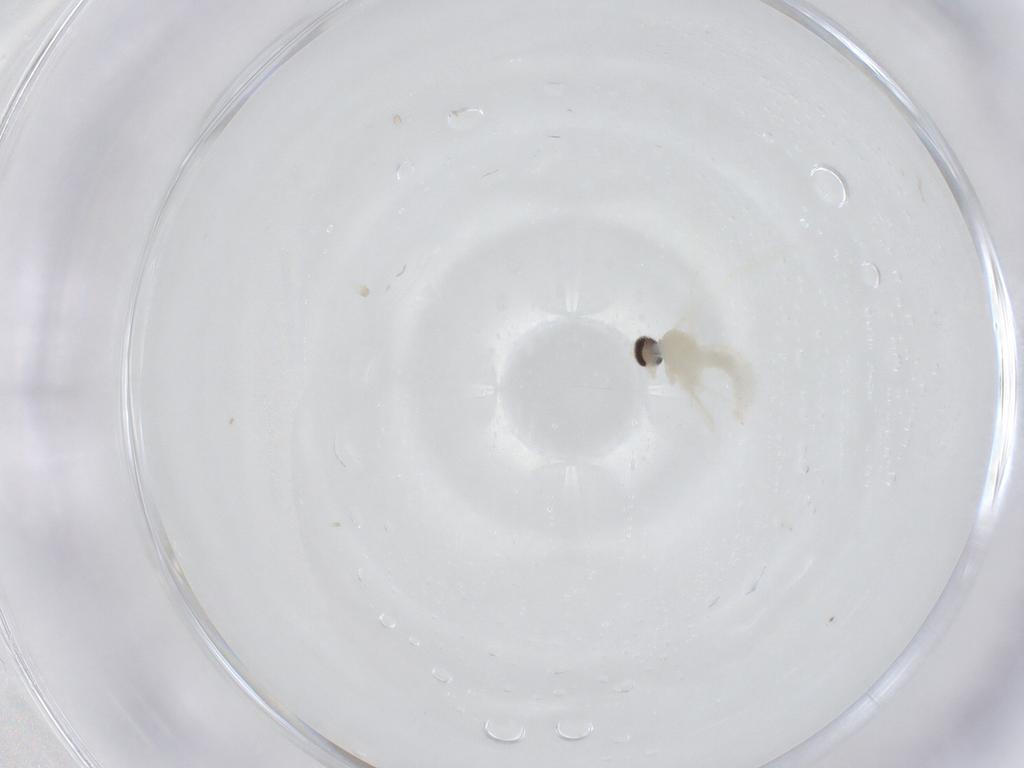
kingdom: Animalia
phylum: Arthropoda
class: Insecta
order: Diptera
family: Cecidomyiidae
